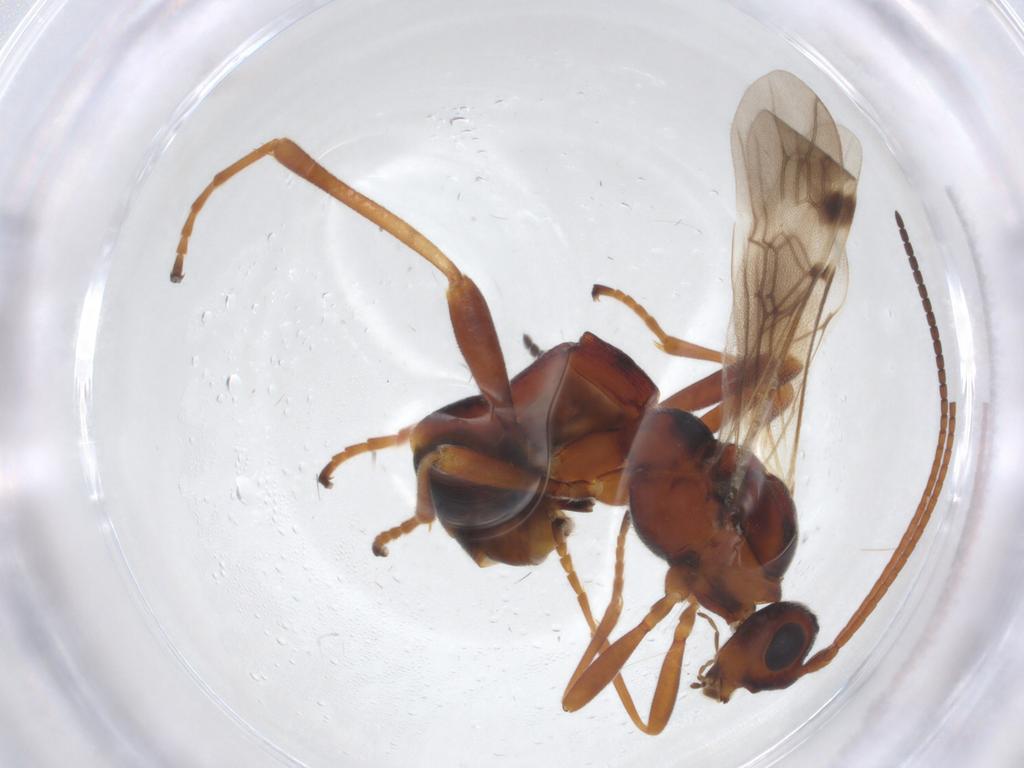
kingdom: Animalia
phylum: Arthropoda
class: Insecta
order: Hymenoptera
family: Braconidae
